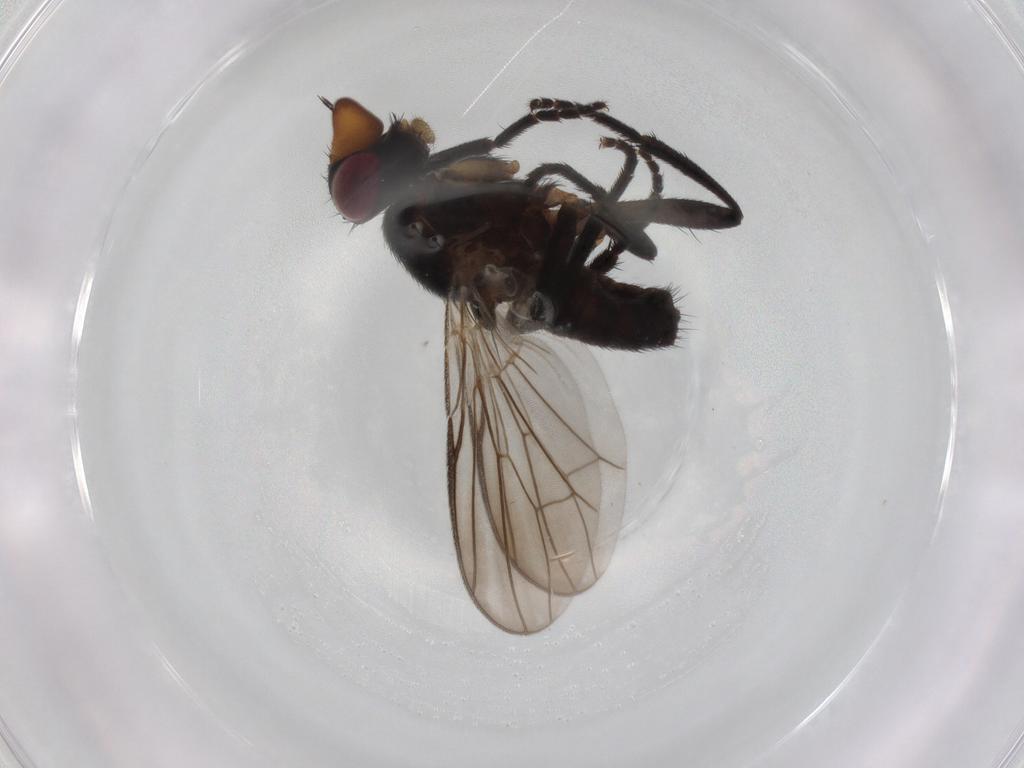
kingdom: Animalia
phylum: Arthropoda
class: Insecta
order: Diptera
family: Calliphoridae
